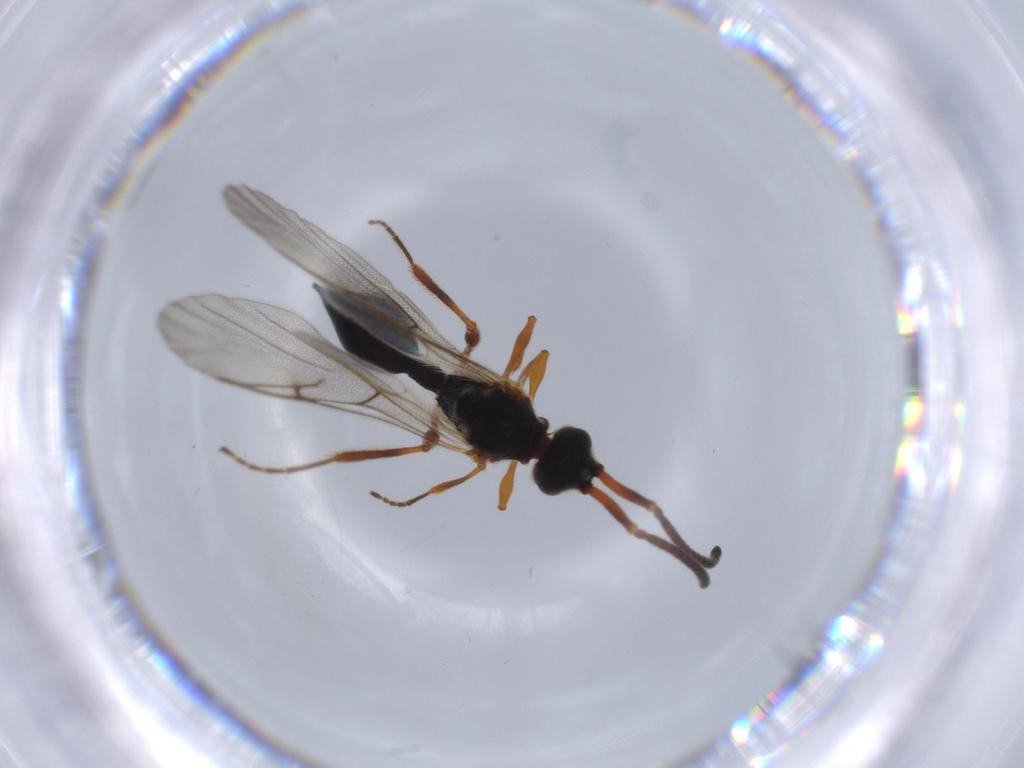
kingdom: Animalia
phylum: Arthropoda
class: Insecta
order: Hymenoptera
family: Diapriidae
